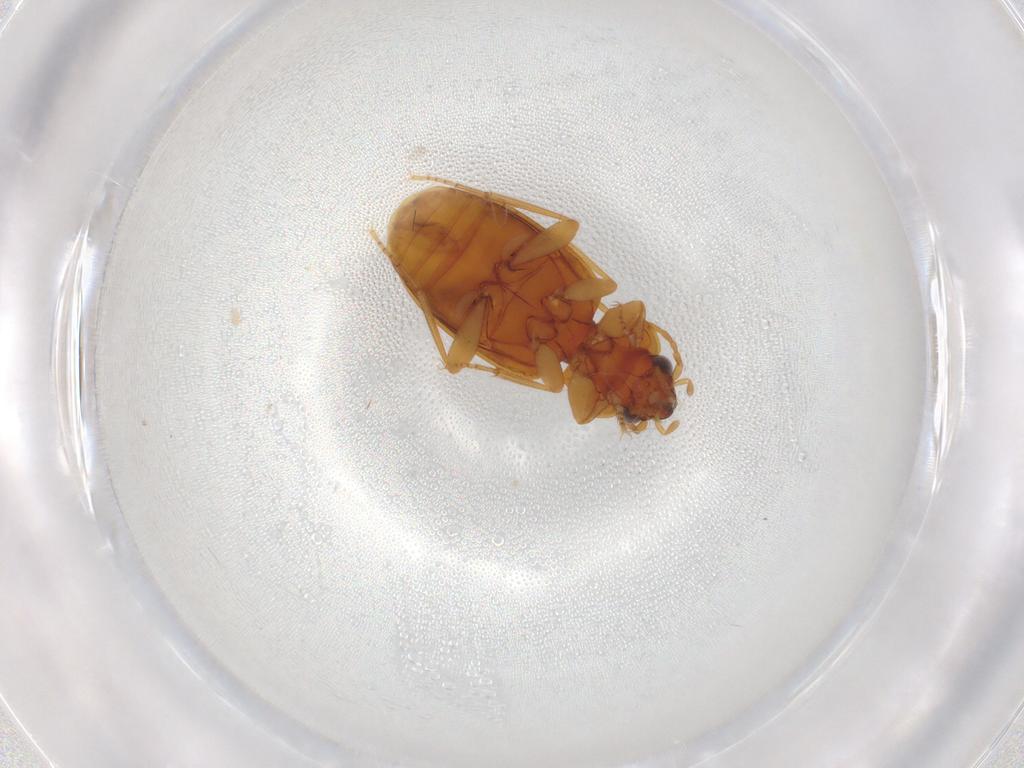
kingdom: Animalia
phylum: Arthropoda
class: Insecta
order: Coleoptera
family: Carabidae
